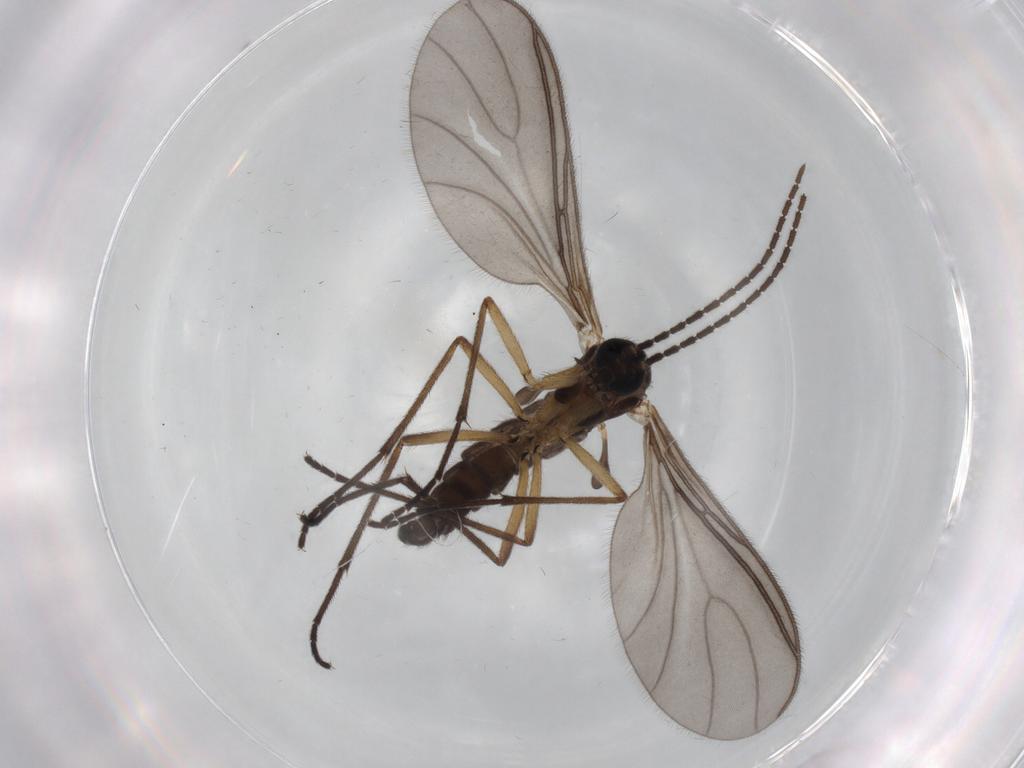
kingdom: Animalia
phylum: Arthropoda
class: Insecta
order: Diptera
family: Sciaridae
